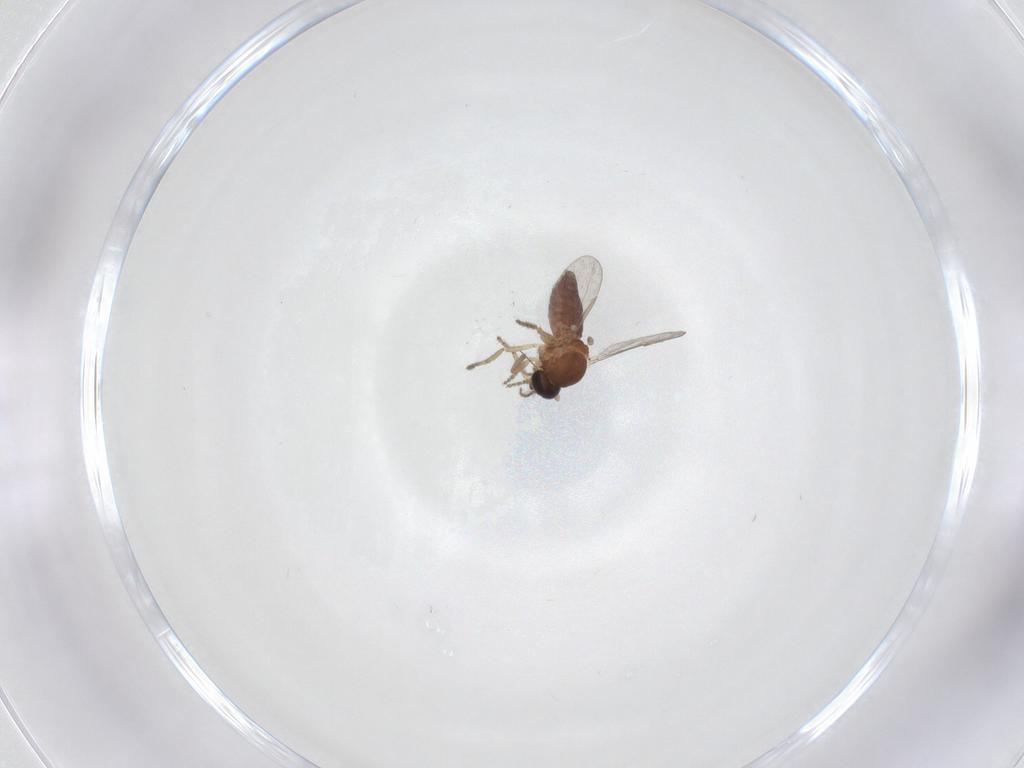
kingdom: Animalia
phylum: Arthropoda
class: Insecta
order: Diptera
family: Ceratopogonidae
